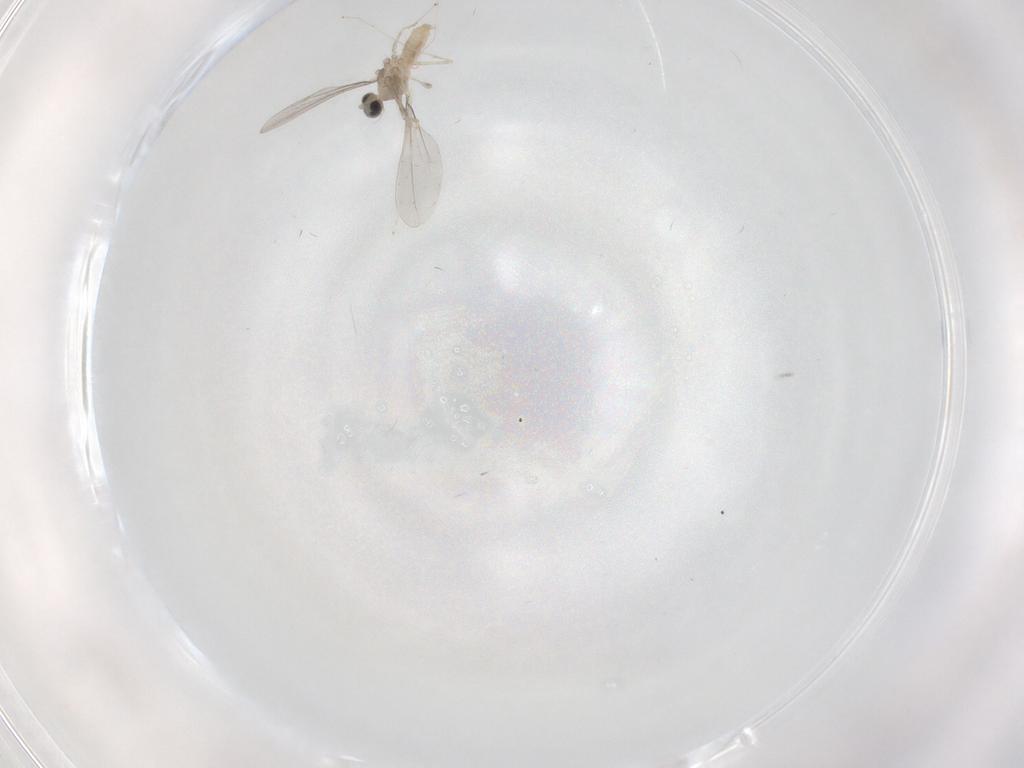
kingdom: Animalia
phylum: Arthropoda
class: Insecta
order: Diptera
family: Cecidomyiidae
